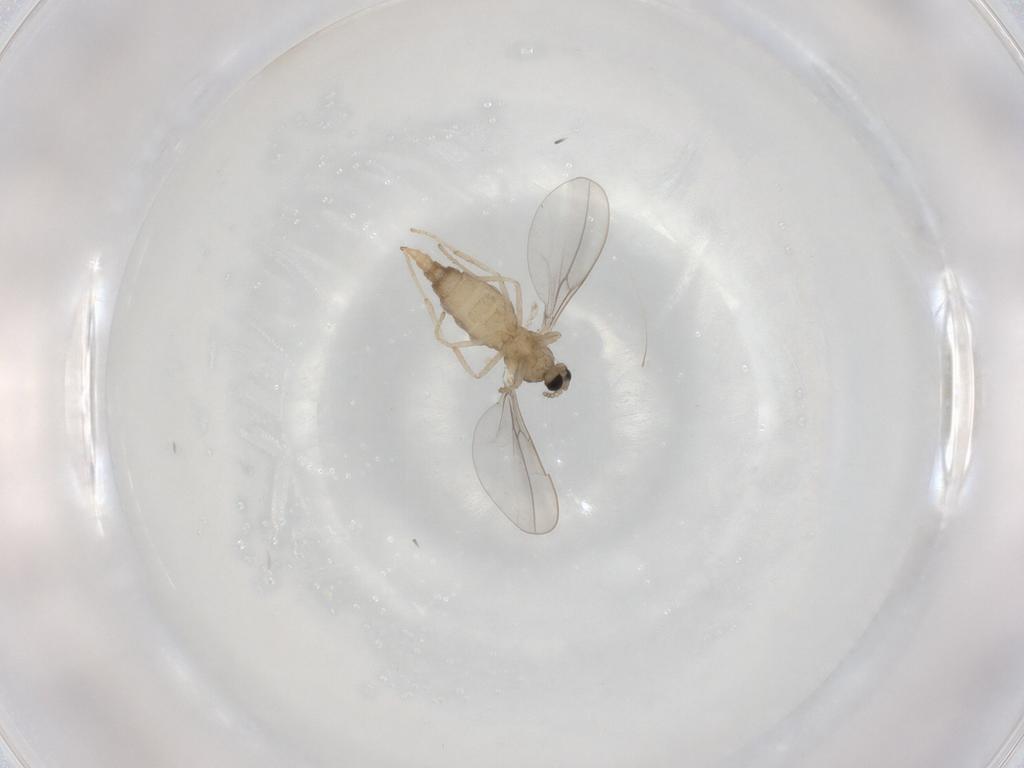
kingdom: Animalia
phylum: Arthropoda
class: Insecta
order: Diptera
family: Cecidomyiidae
